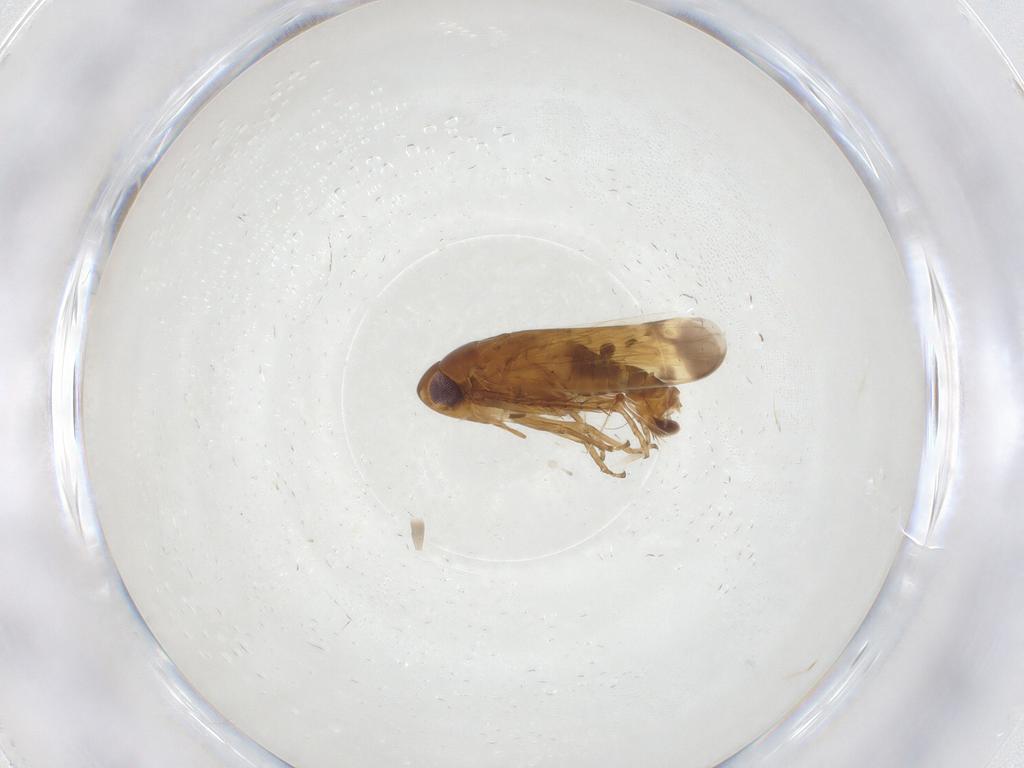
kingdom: Animalia
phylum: Arthropoda
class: Insecta
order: Hemiptera
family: Cicadellidae
